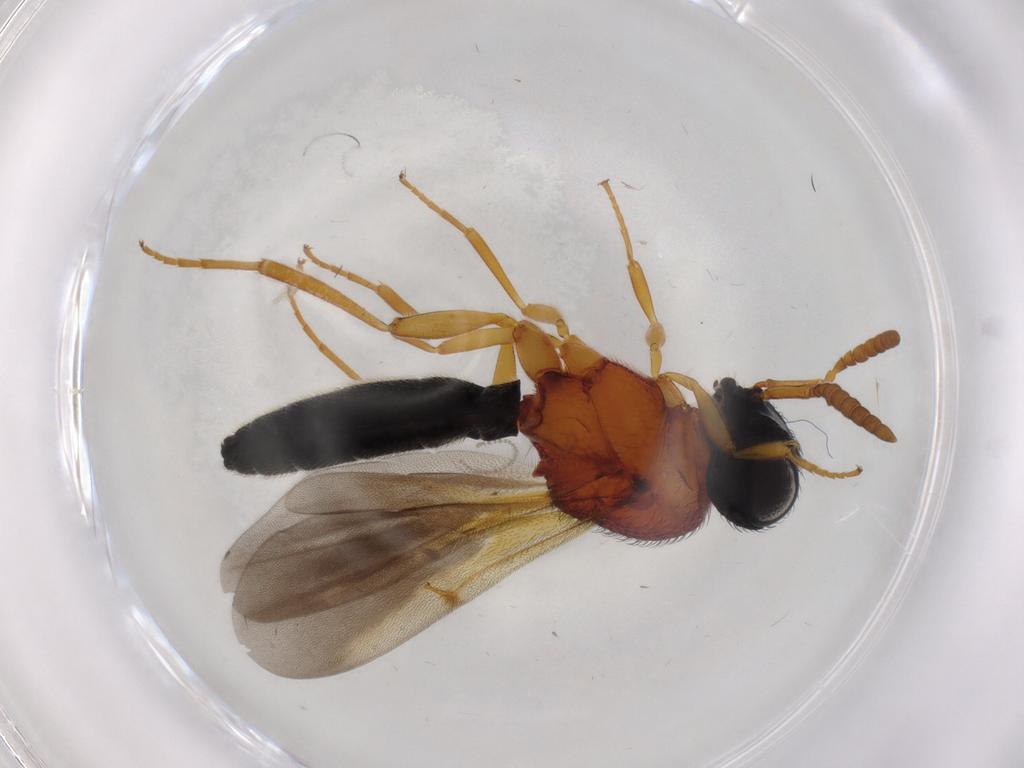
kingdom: Animalia
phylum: Arthropoda
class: Insecta
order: Hymenoptera
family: Scelionidae
